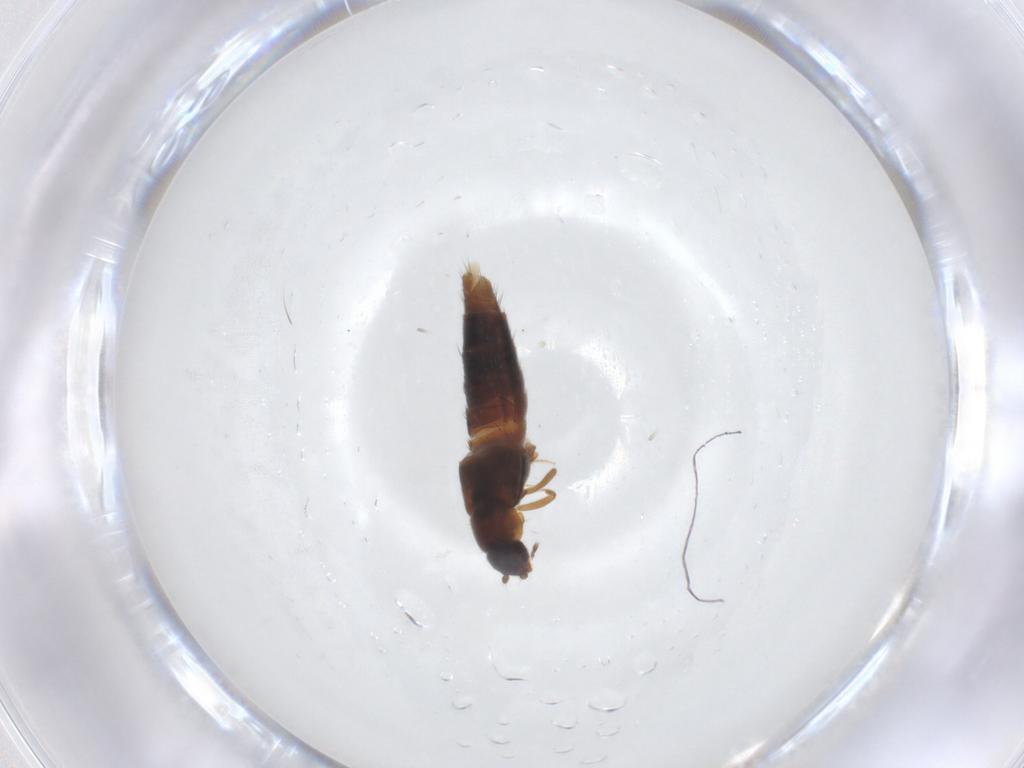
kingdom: Animalia
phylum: Arthropoda
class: Insecta
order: Coleoptera
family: Staphylinidae
